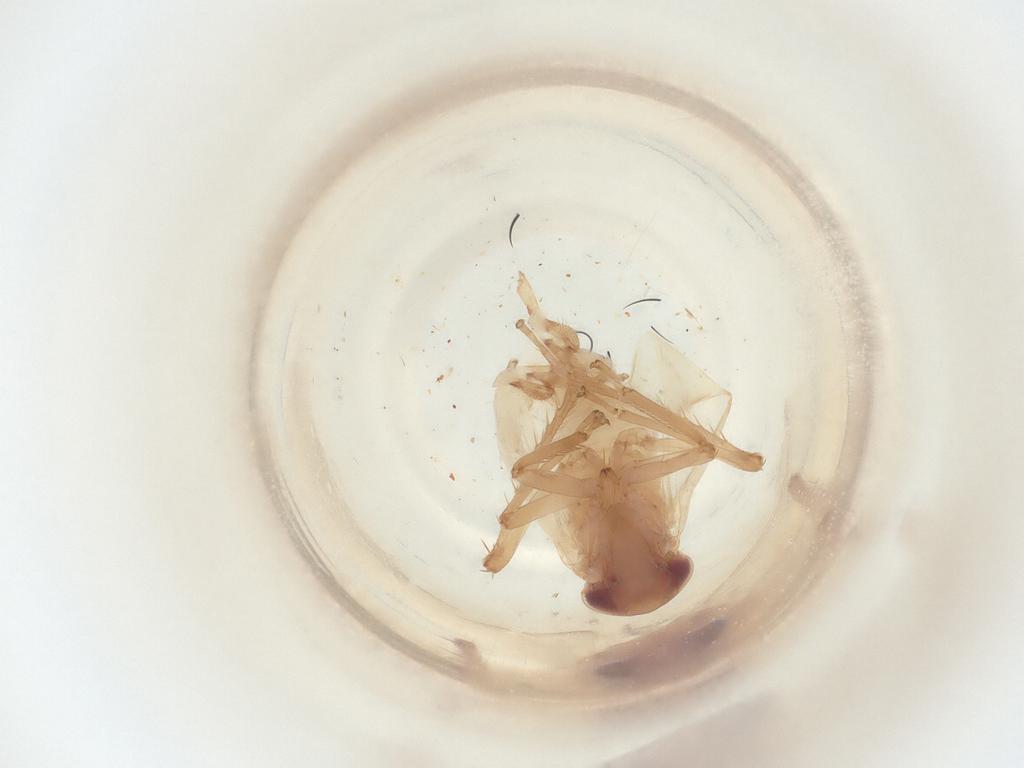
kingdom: Animalia
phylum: Arthropoda
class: Insecta
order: Hemiptera
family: Cicadellidae
